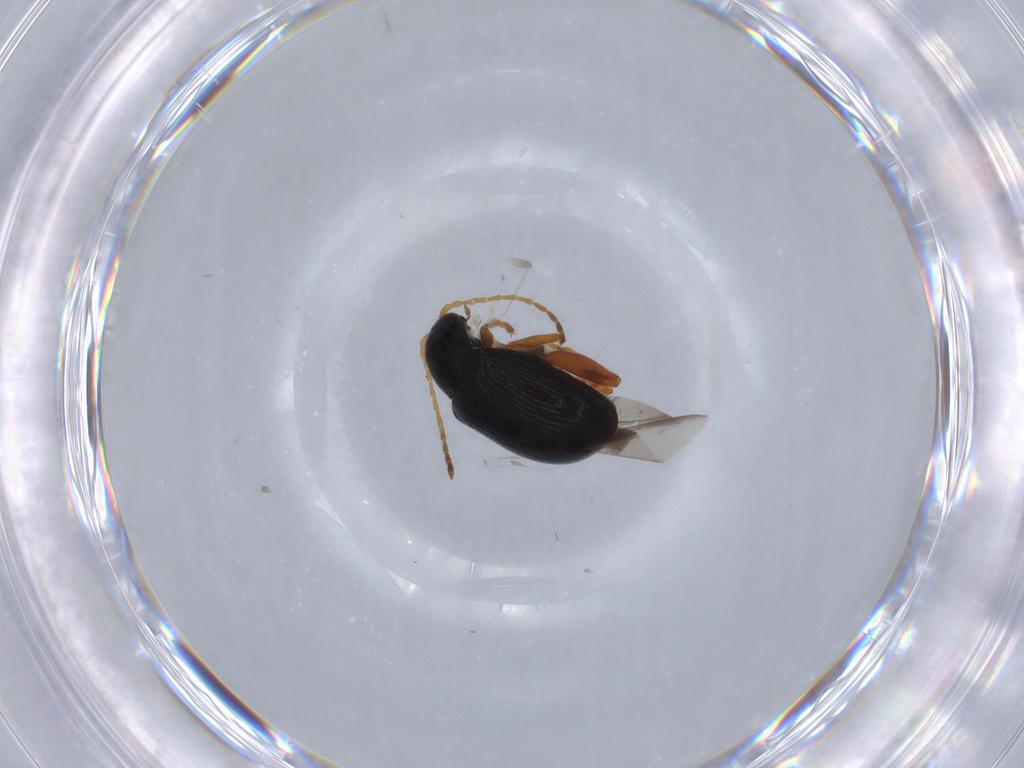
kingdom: Animalia
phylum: Arthropoda
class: Insecta
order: Coleoptera
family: Chrysomelidae
